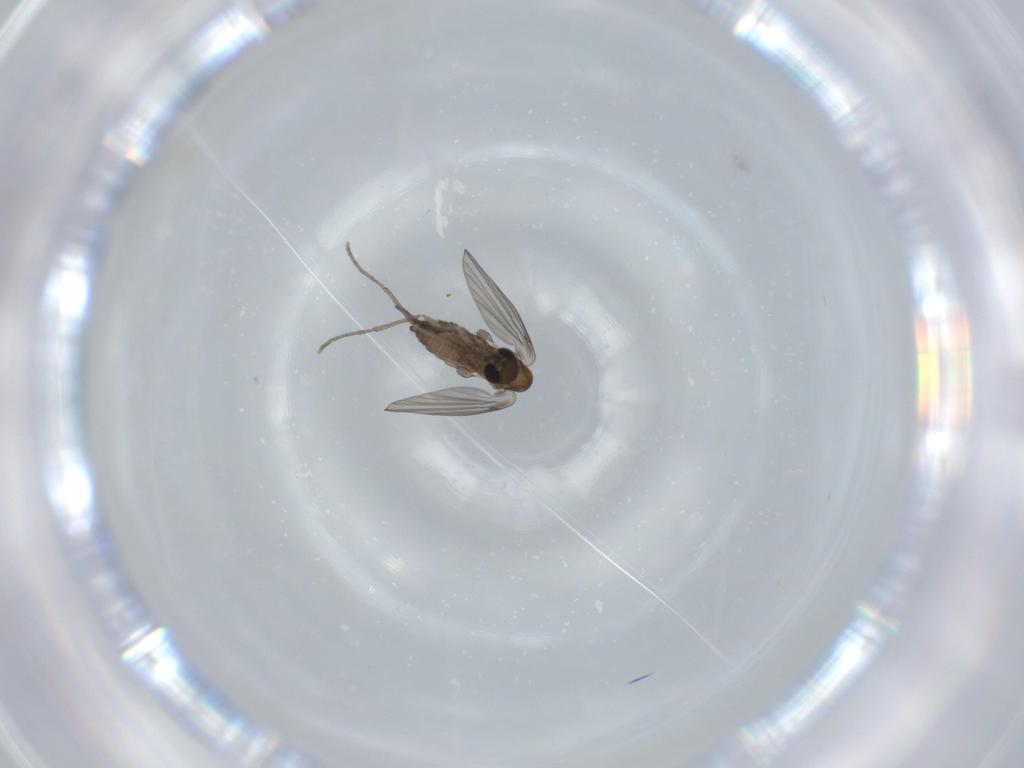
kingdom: Animalia
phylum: Arthropoda
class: Insecta
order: Diptera
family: Psychodidae
